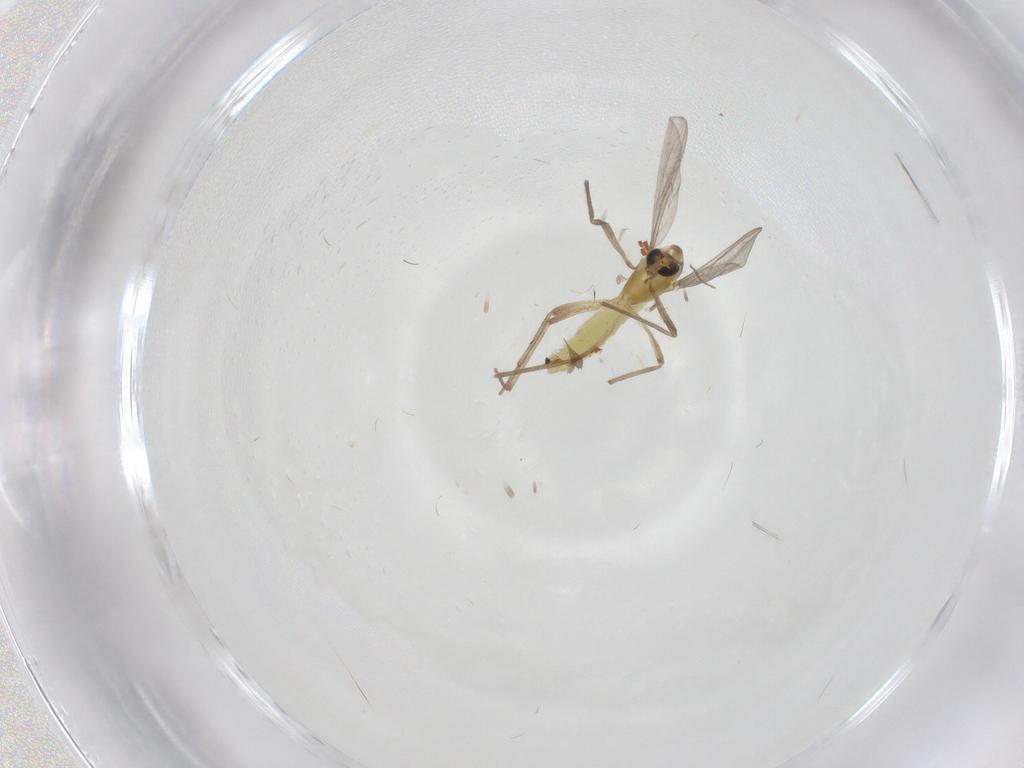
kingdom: Animalia
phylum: Arthropoda
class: Insecta
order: Diptera
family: Chironomidae
